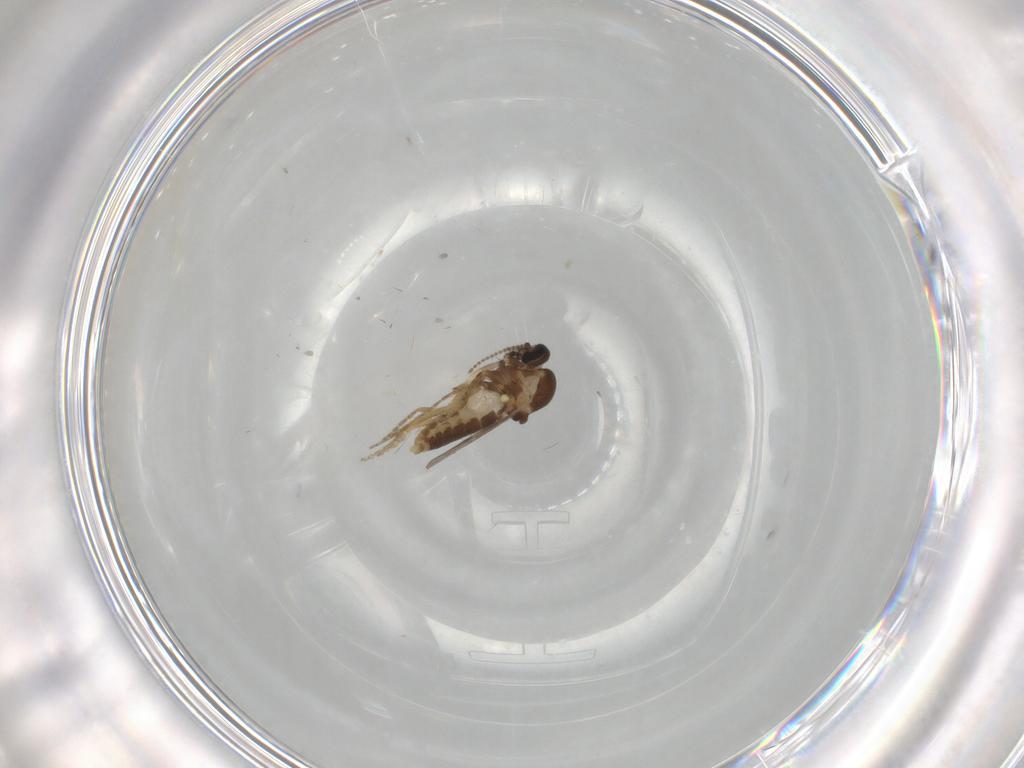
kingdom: Animalia
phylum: Arthropoda
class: Insecta
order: Diptera
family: Ceratopogonidae
